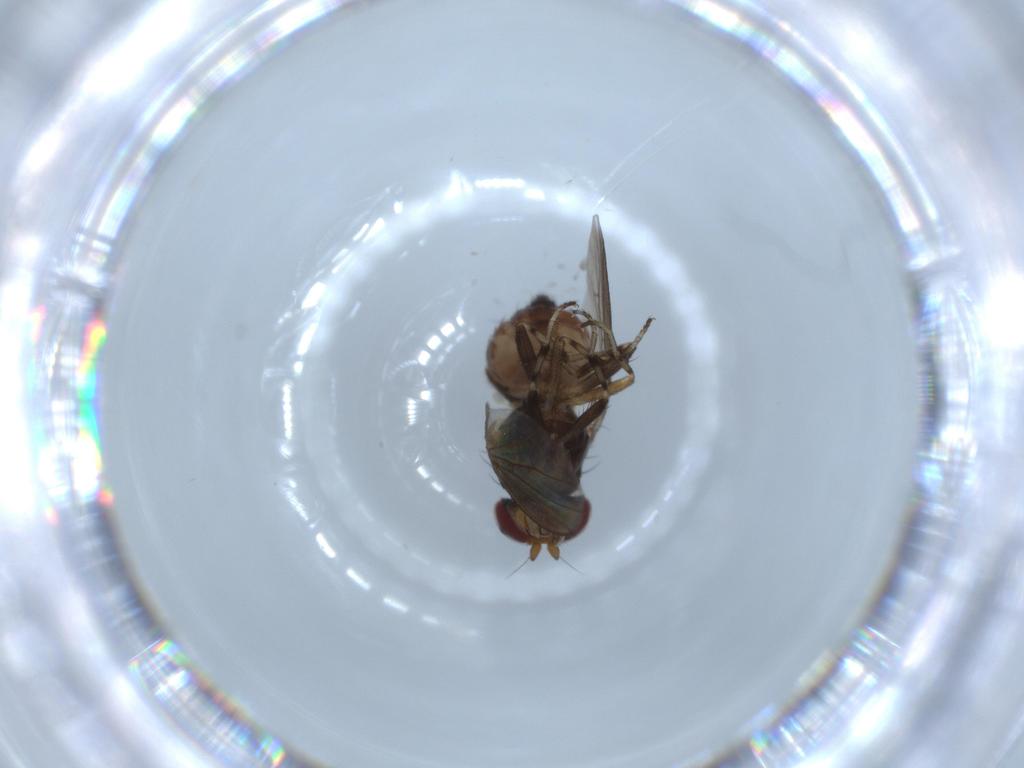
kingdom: Animalia
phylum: Arthropoda
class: Insecta
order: Diptera
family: Heleomyzidae
